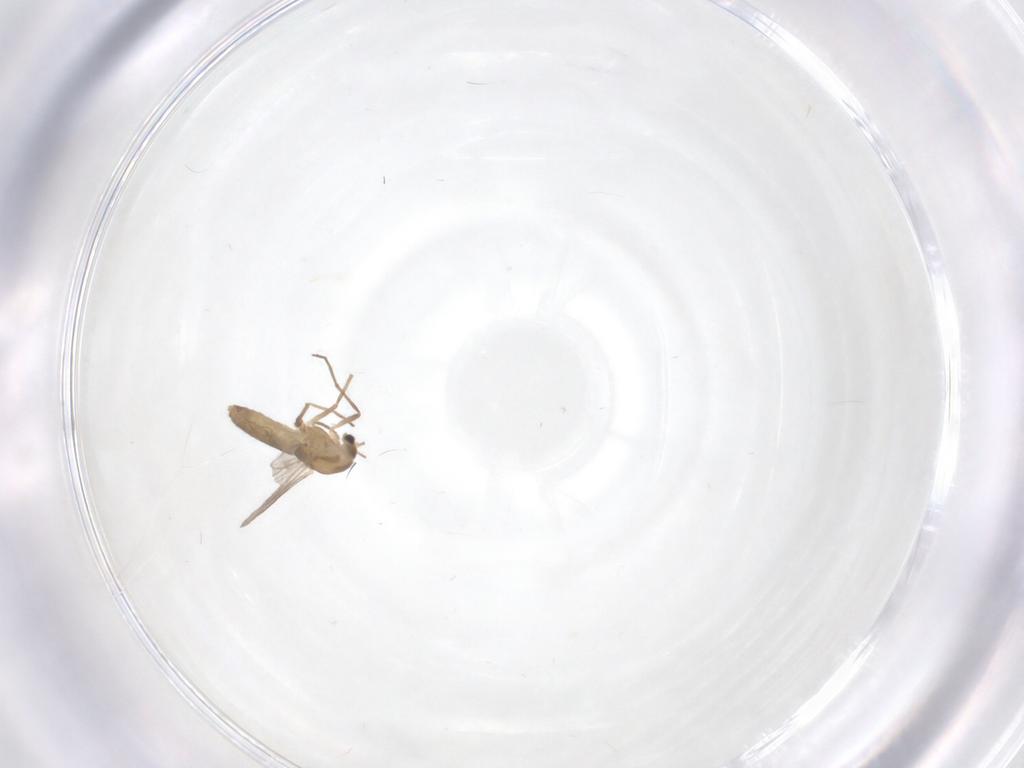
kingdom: Animalia
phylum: Arthropoda
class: Insecta
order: Diptera
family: Chironomidae
